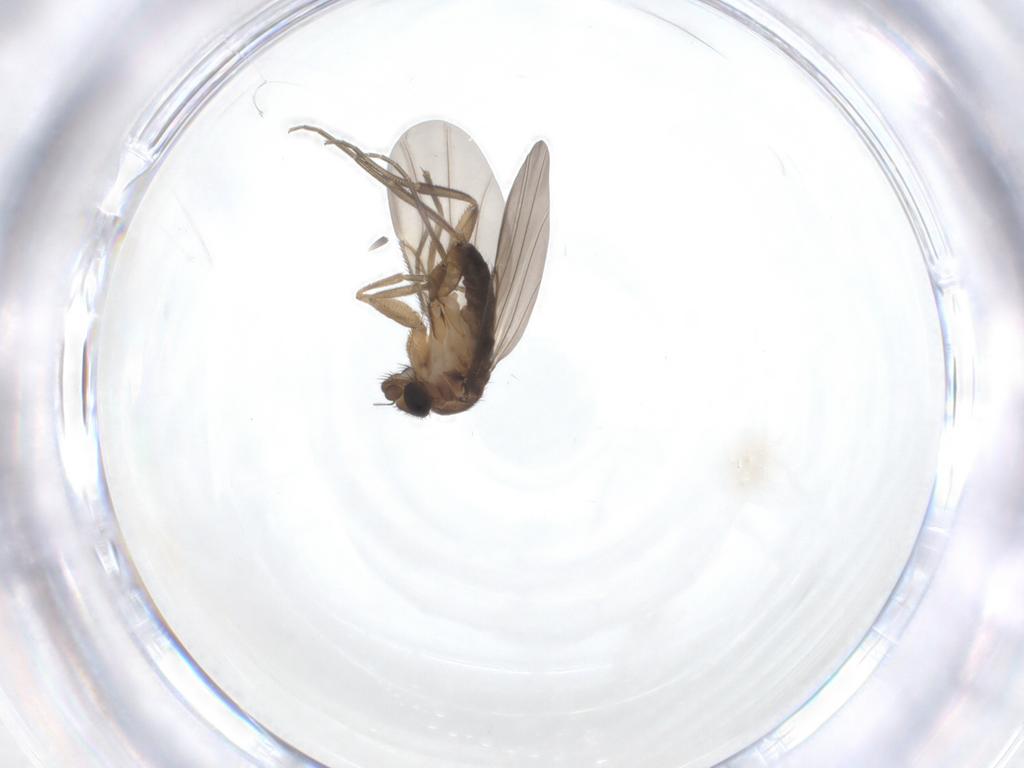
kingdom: Animalia
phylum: Arthropoda
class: Insecta
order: Diptera
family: Phoridae
